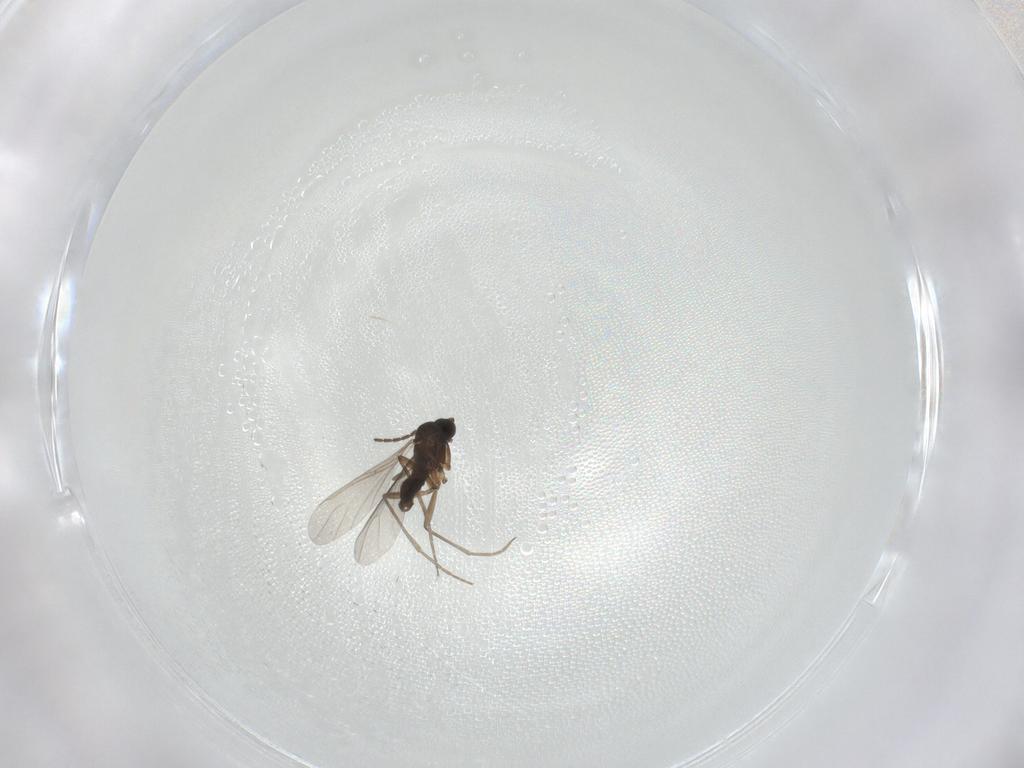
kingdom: Animalia
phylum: Arthropoda
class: Insecta
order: Diptera
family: Sciaridae
